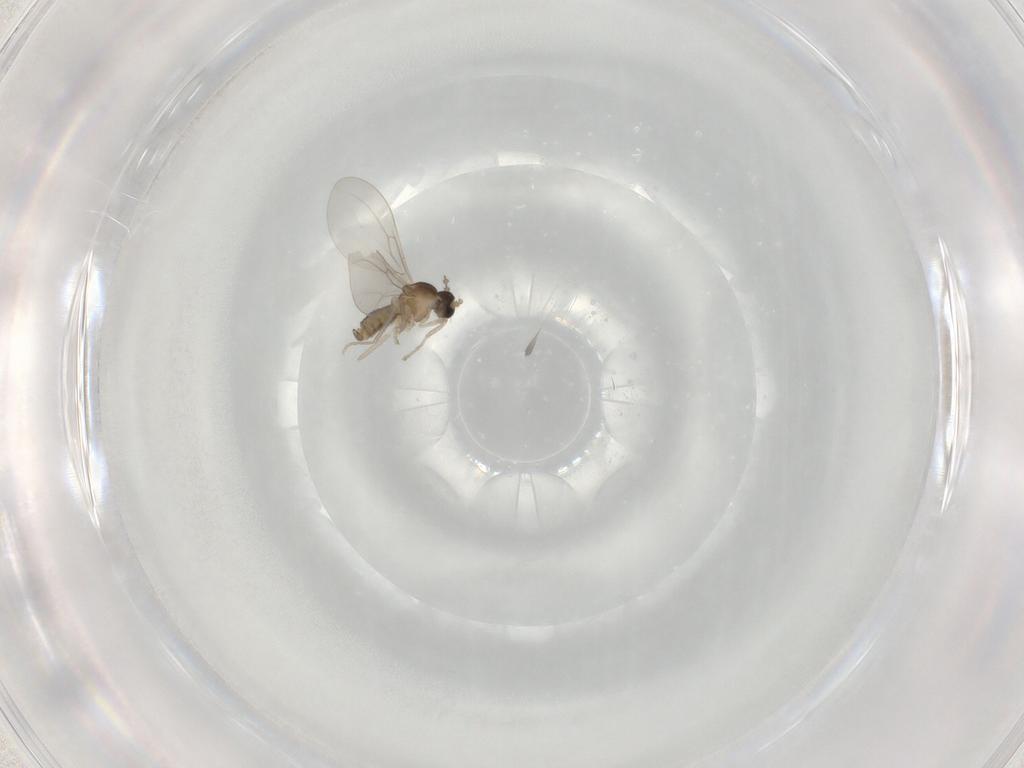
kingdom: Animalia
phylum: Arthropoda
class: Insecta
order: Diptera
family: Cecidomyiidae
